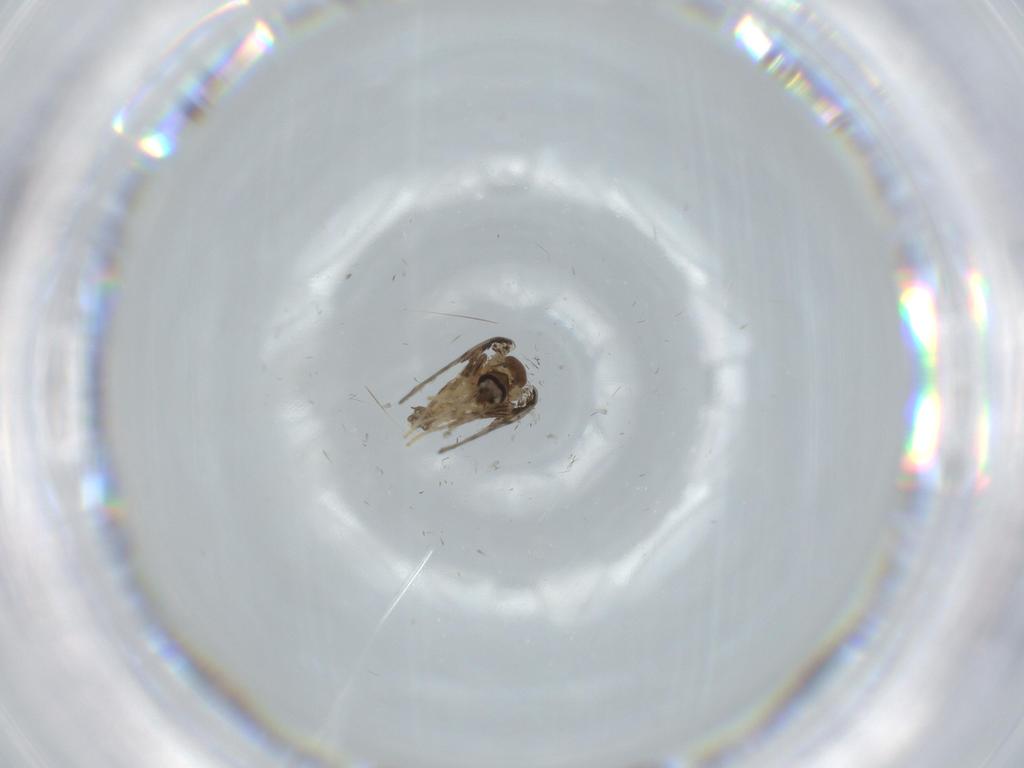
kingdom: Animalia
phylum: Arthropoda
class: Insecta
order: Diptera
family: Psychodidae
